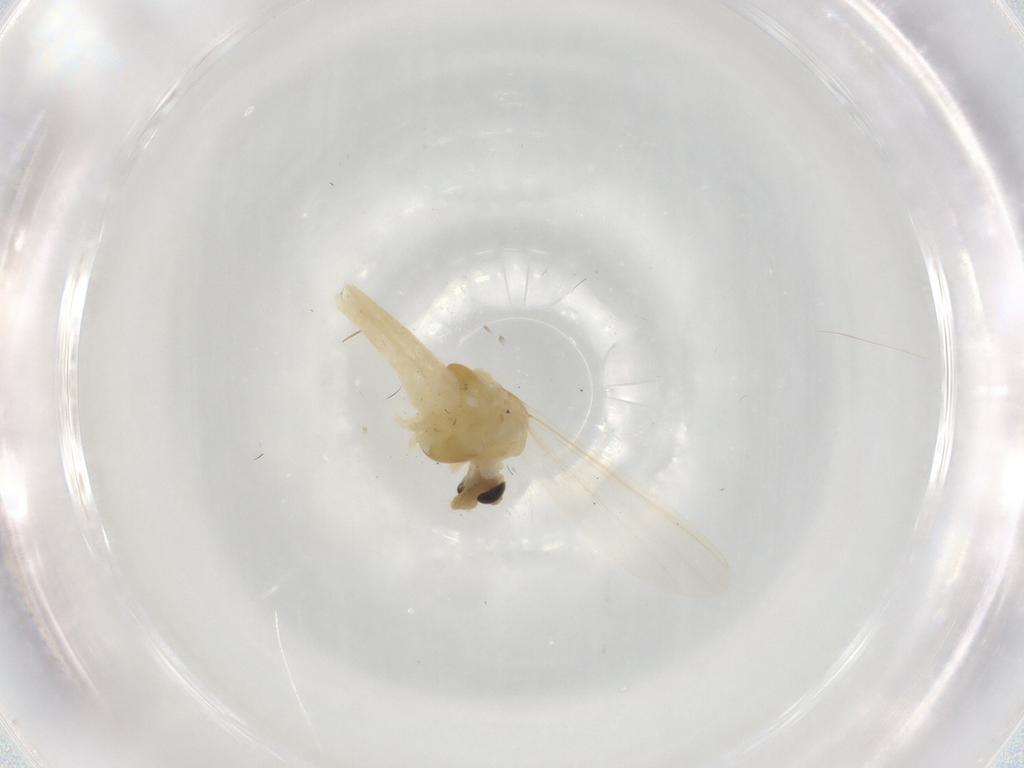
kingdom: Animalia
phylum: Arthropoda
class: Insecta
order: Diptera
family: Chironomidae
